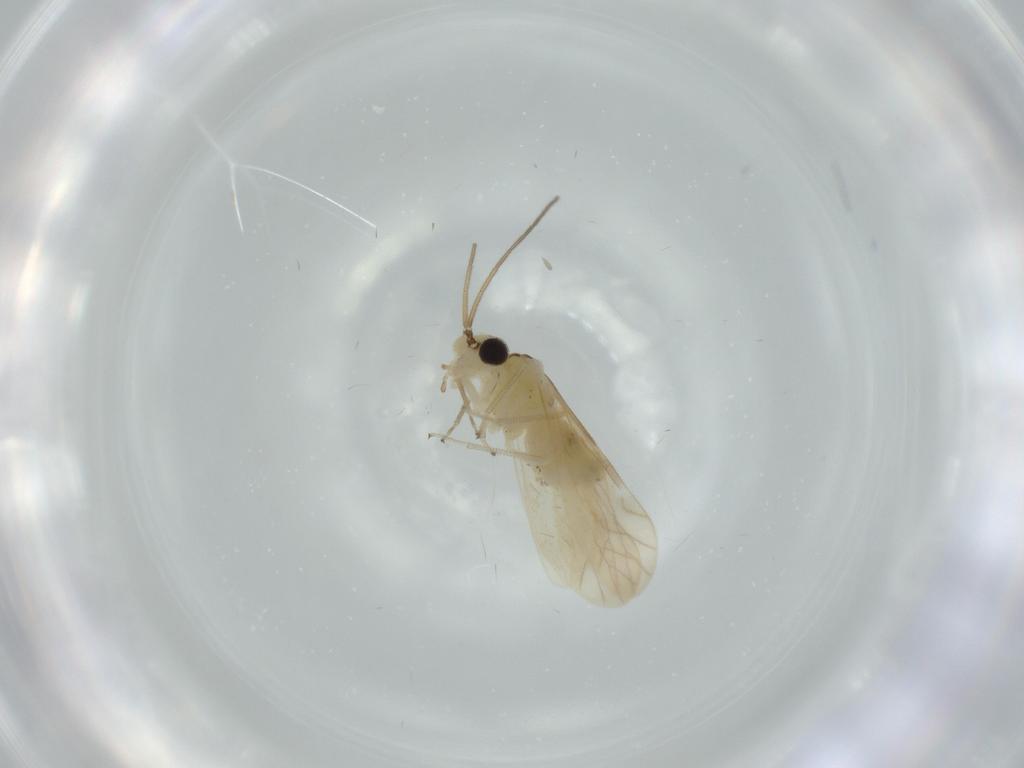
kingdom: Animalia
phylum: Arthropoda
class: Insecta
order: Psocodea
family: Caeciliusidae
